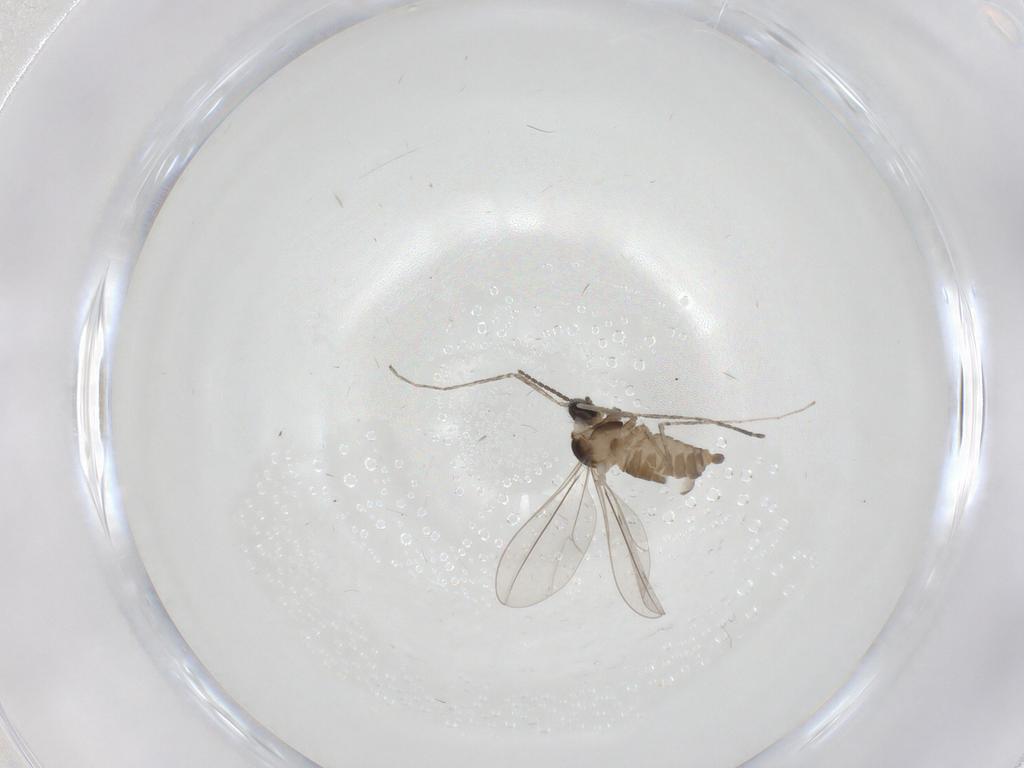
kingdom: Animalia
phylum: Arthropoda
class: Insecta
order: Diptera
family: Cecidomyiidae
